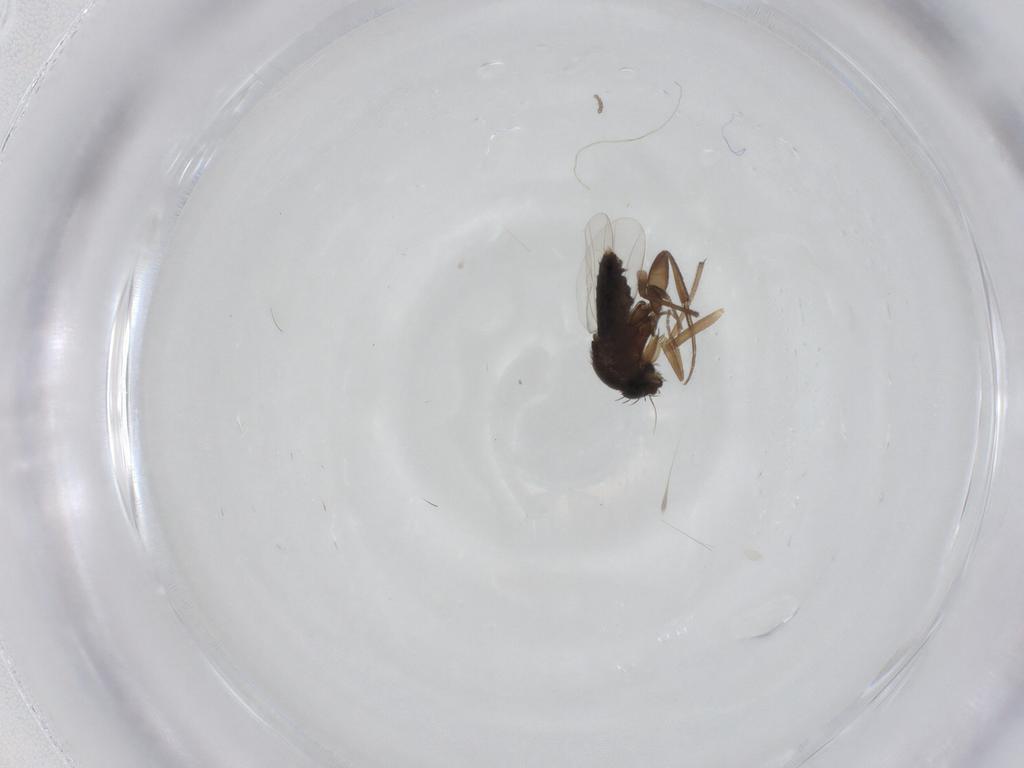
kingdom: Animalia
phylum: Arthropoda
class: Insecta
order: Diptera
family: Phoridae
